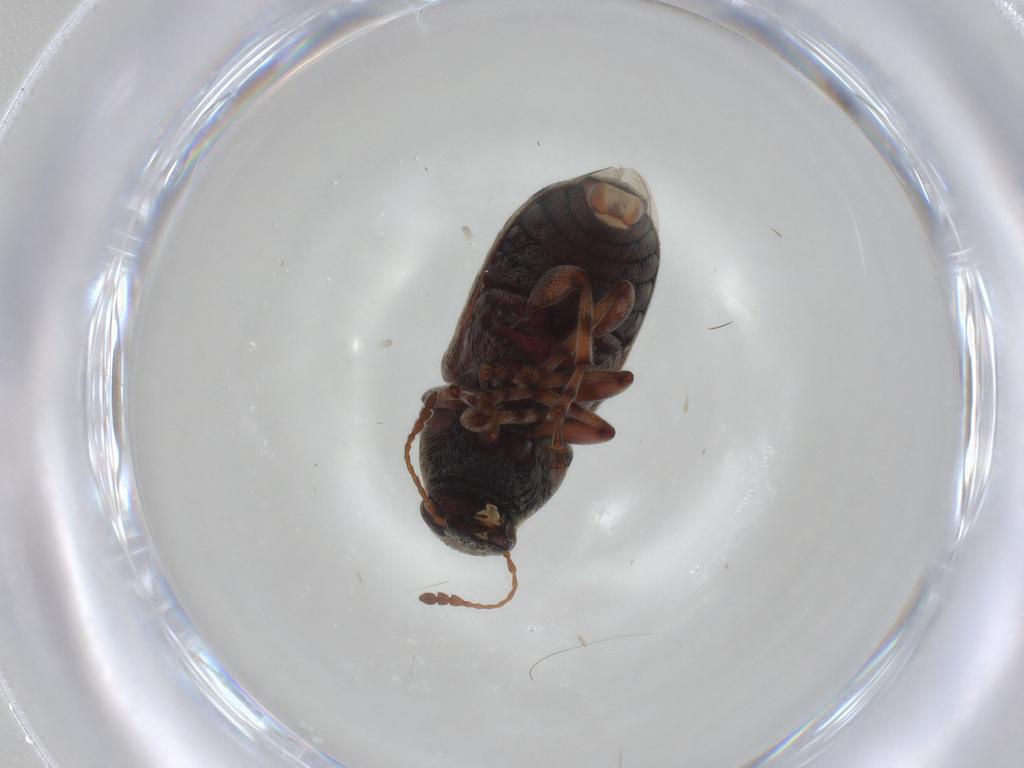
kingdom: Animalia
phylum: Arthropoda
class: Insecta
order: Coleoptera
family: Anthribidae
